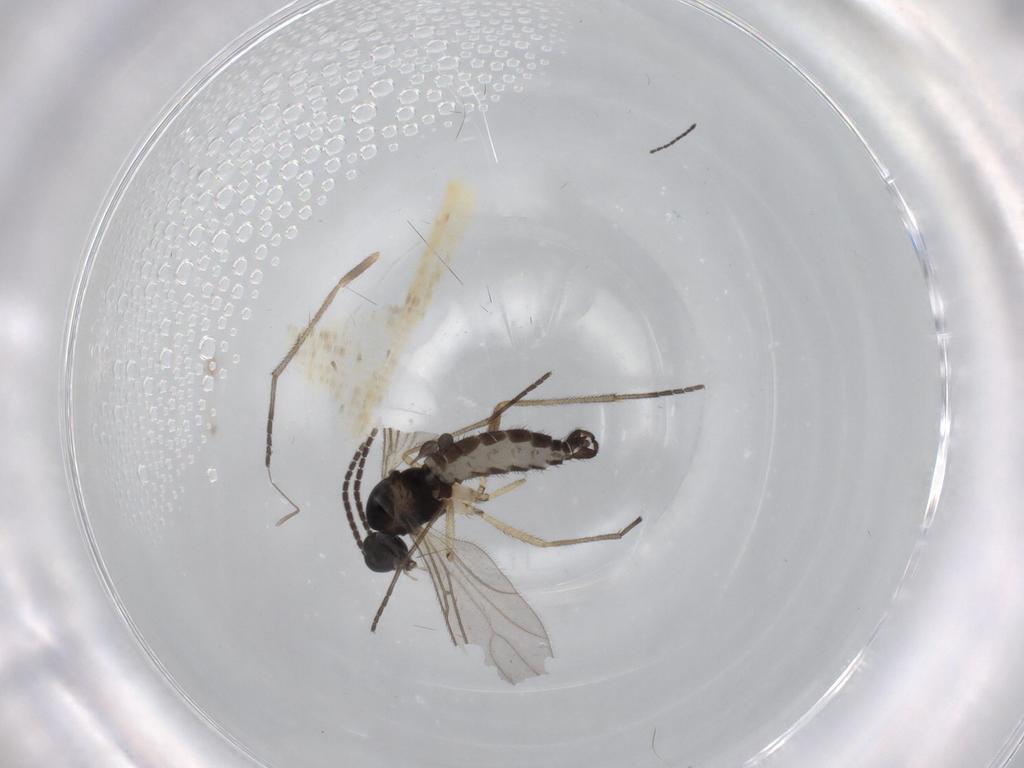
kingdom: Animalia
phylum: Arthropoda
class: Insecta
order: Diptera
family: Sciaridae
